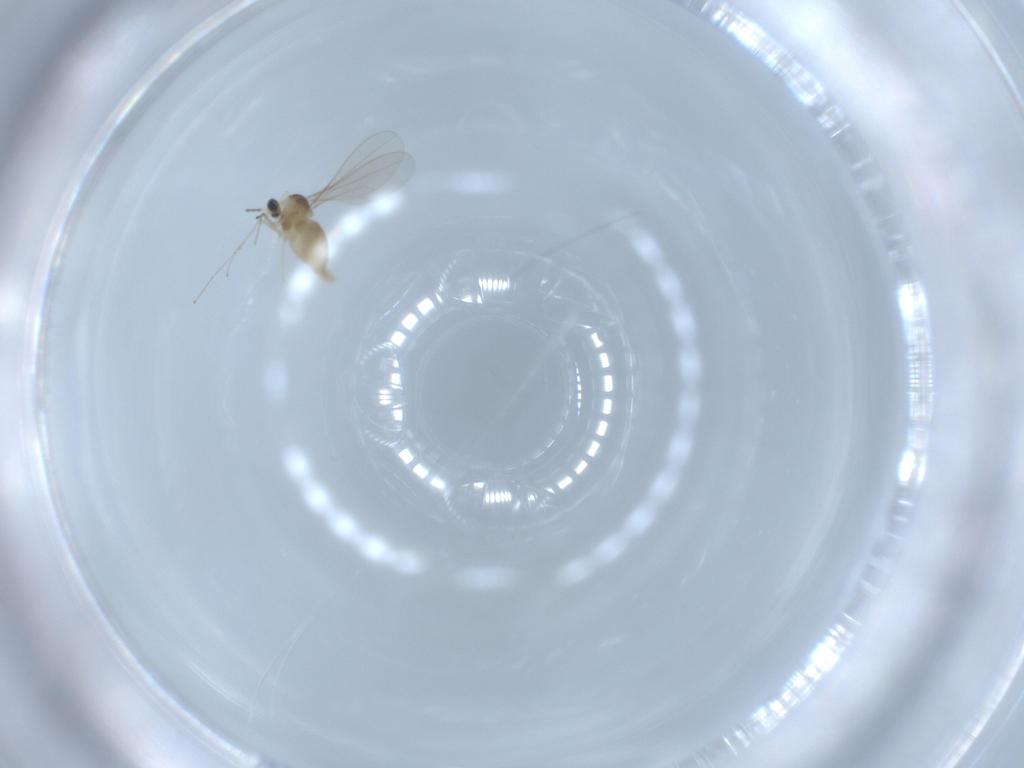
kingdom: Animalia
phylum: Arthropoda
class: Insecta
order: Diptera
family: Cecidomyiidae
